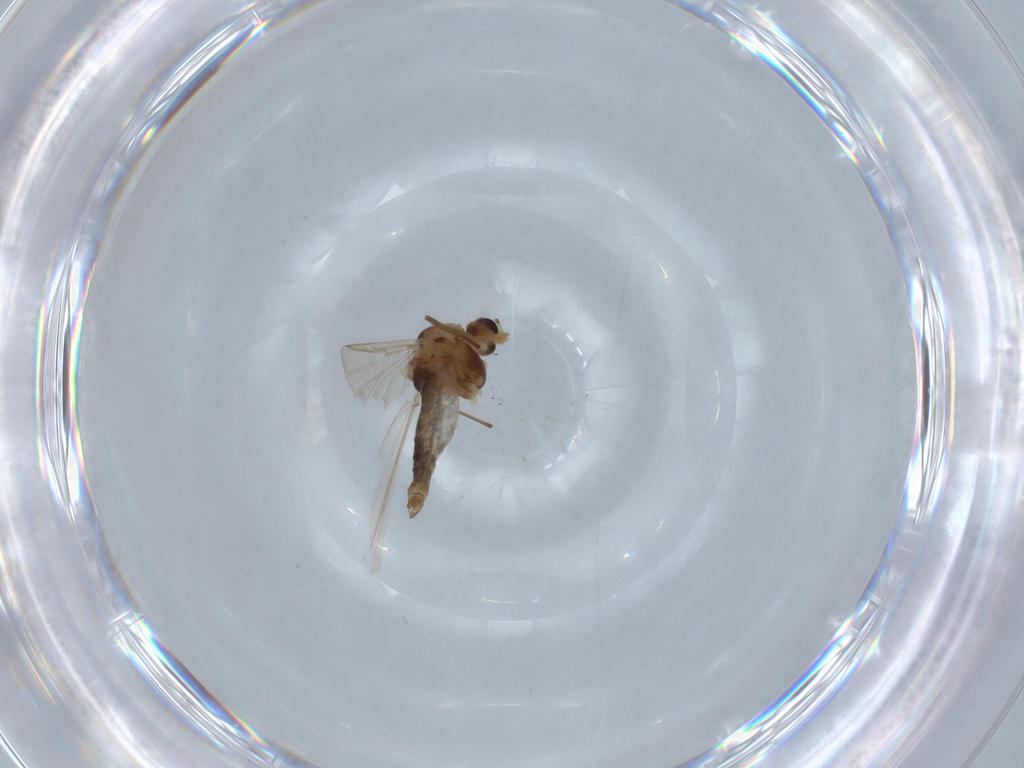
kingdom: Animalia
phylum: Arthropoda
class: Insecta
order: Diptera
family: Chironomidae
